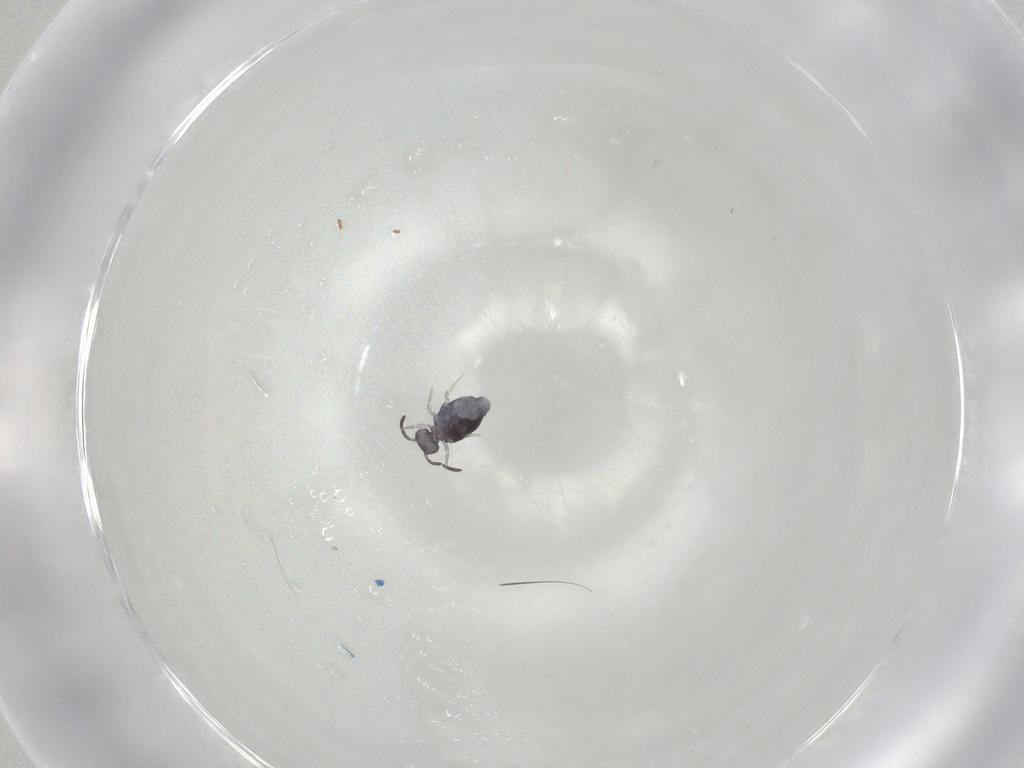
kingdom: Animalia
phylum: Arthropoda
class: Collembola
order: Symphypleona
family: Katiannidae
